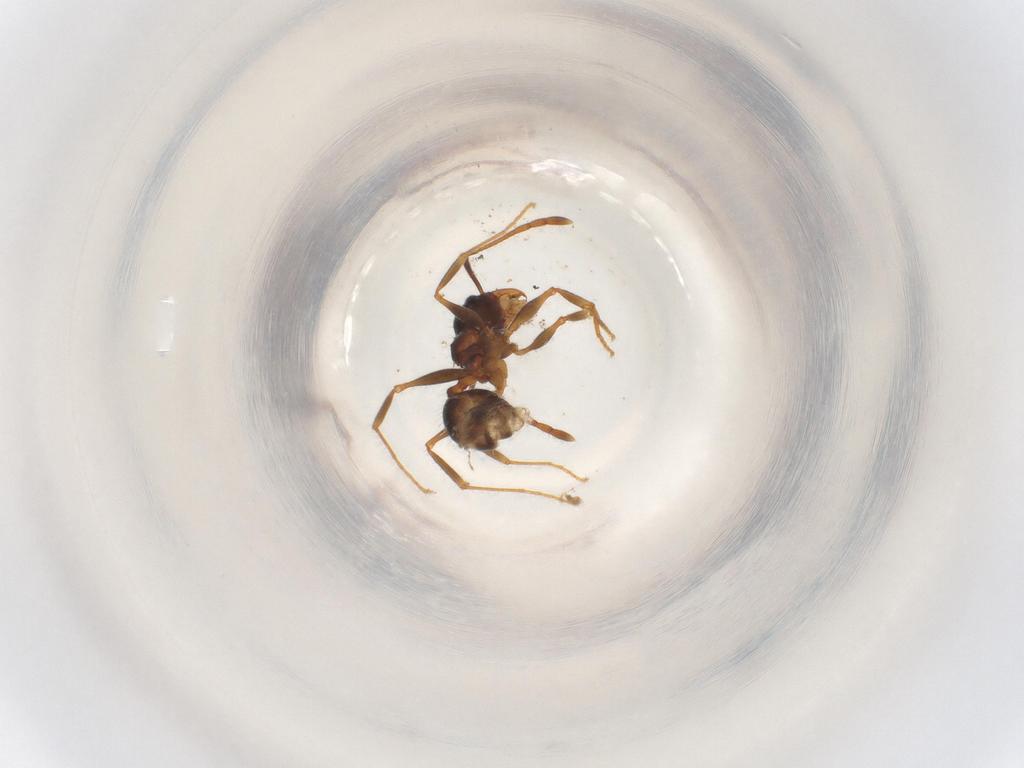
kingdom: Animalia
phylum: Arthropoda
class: Insecta
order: Hymenoptera
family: Formicidae
